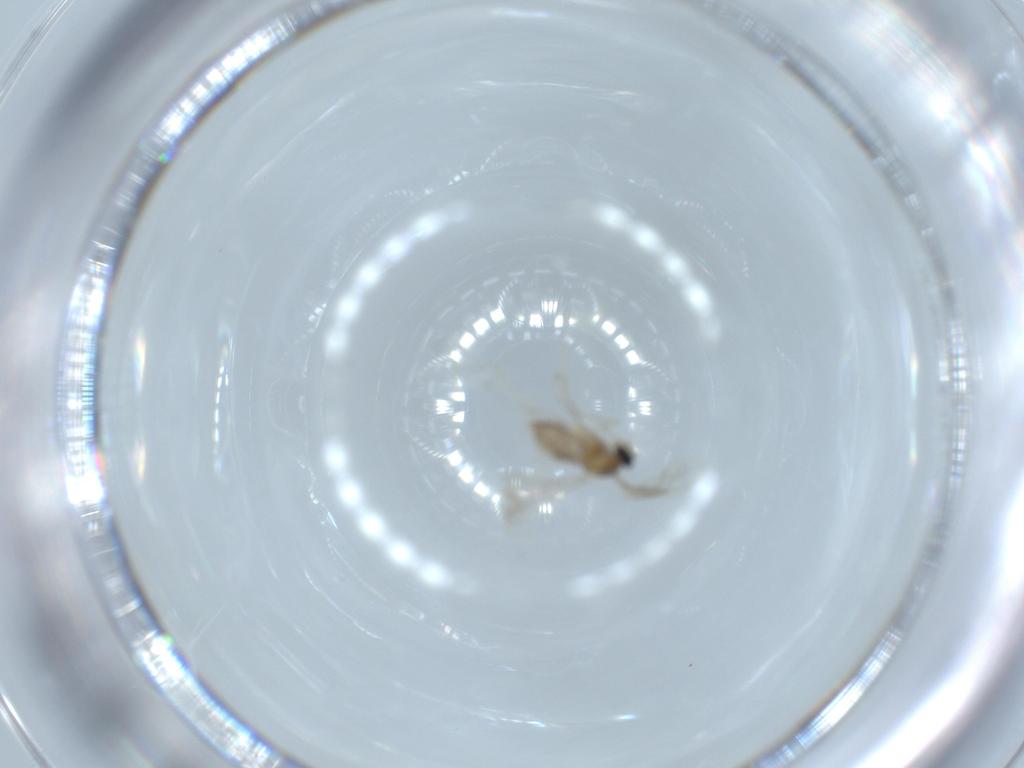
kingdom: Animalia
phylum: Arthropoda
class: Insecta
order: Diptera
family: Cecidomyiidae
